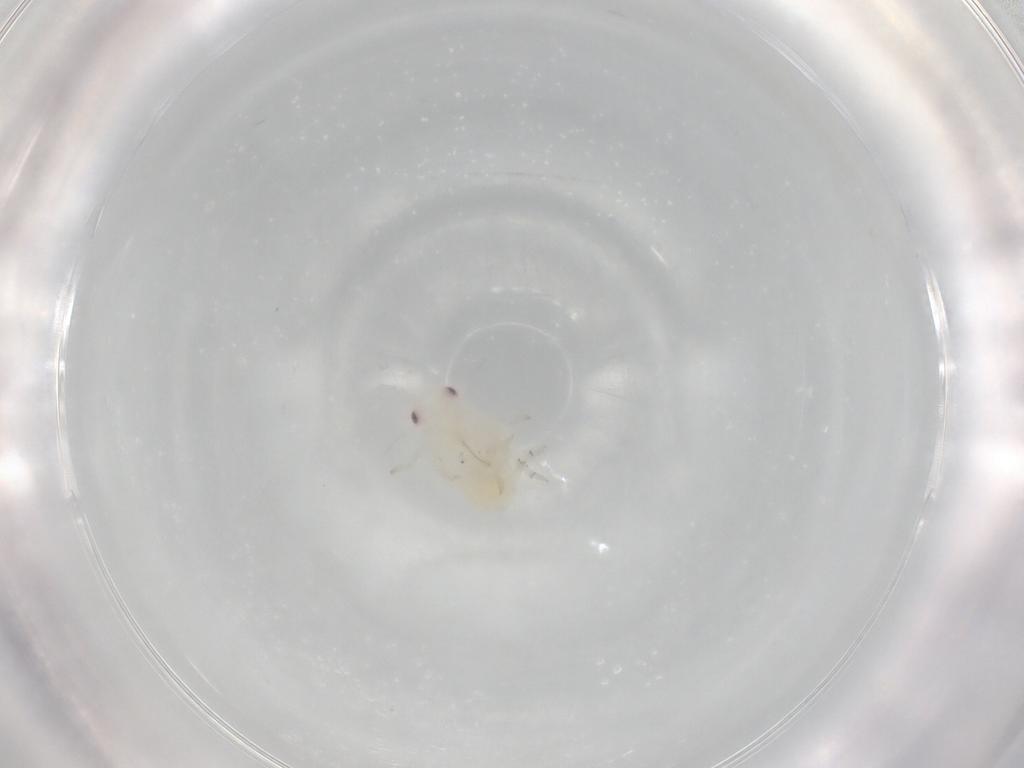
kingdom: Animalia
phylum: Arthropoda
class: Insecta
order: Hemiptera
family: Flatidae
